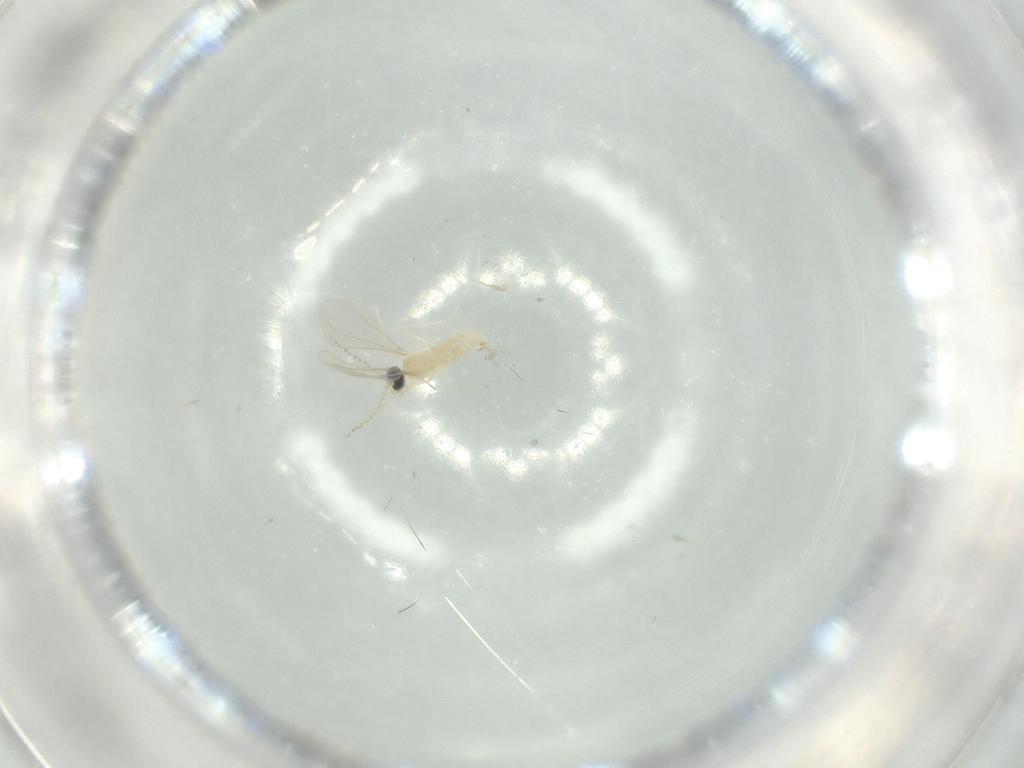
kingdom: Animalia
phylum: Arthropoda
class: Insecta
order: Diptera
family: Cecidomyiidae
